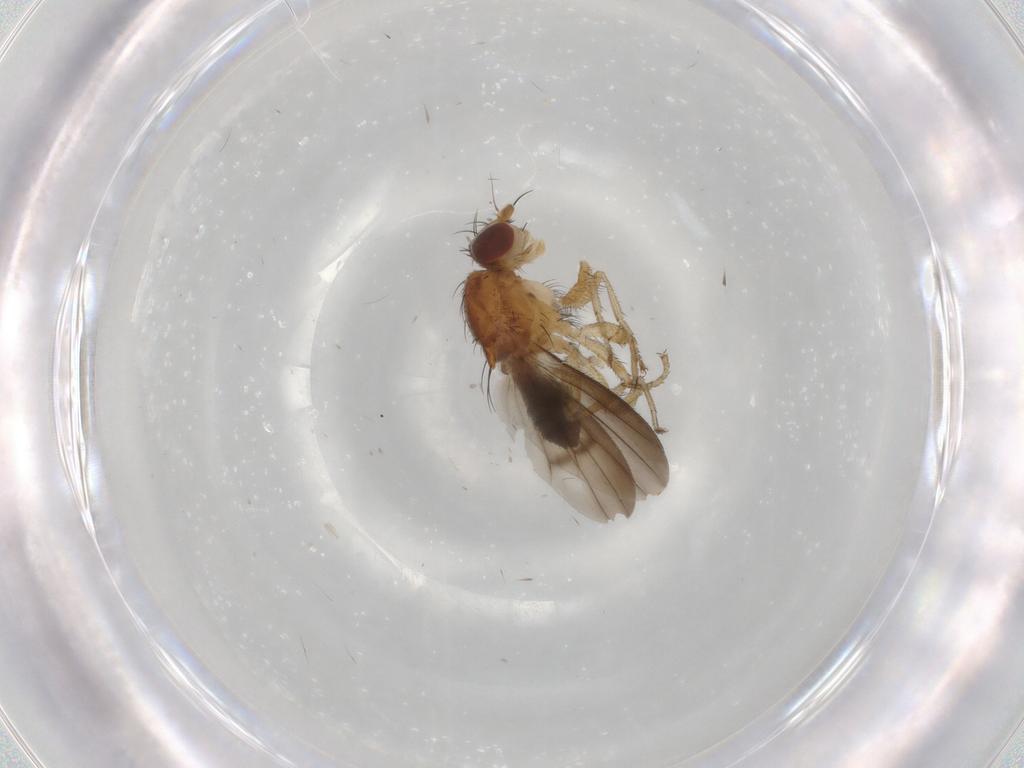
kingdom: Animalia
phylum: Arthropoda
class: Insecta
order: Diptera
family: Heleomyzidae
